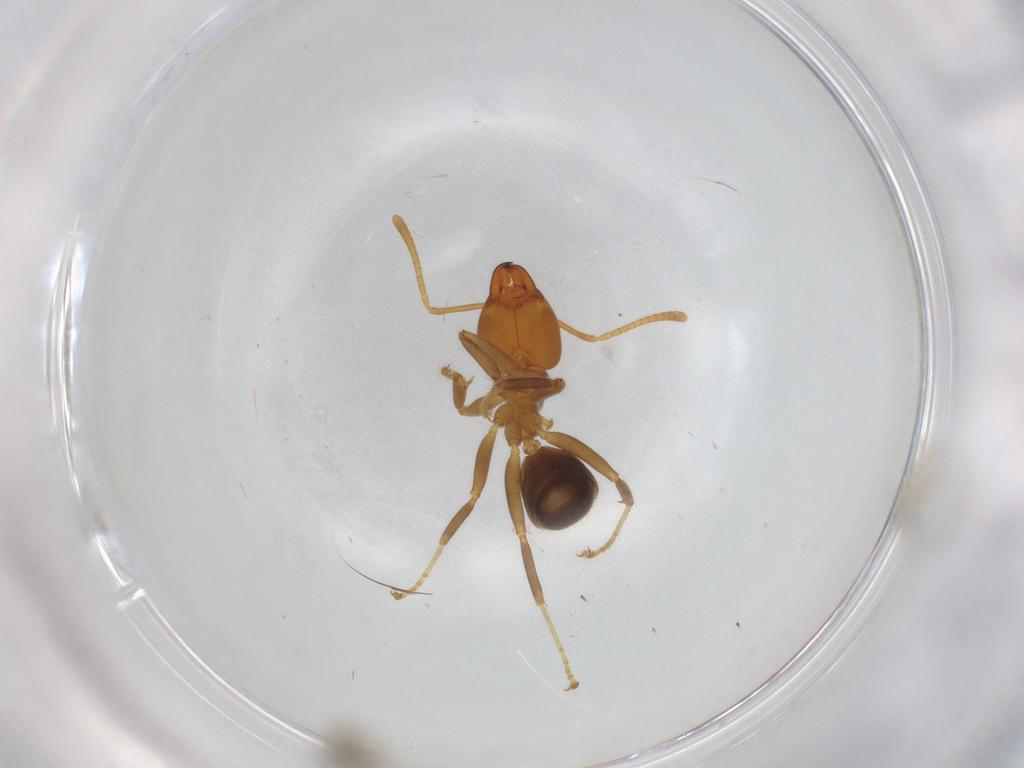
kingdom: Animalia
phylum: Arthropoda
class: Insecta
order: Hymenoptera
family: Formicidae
